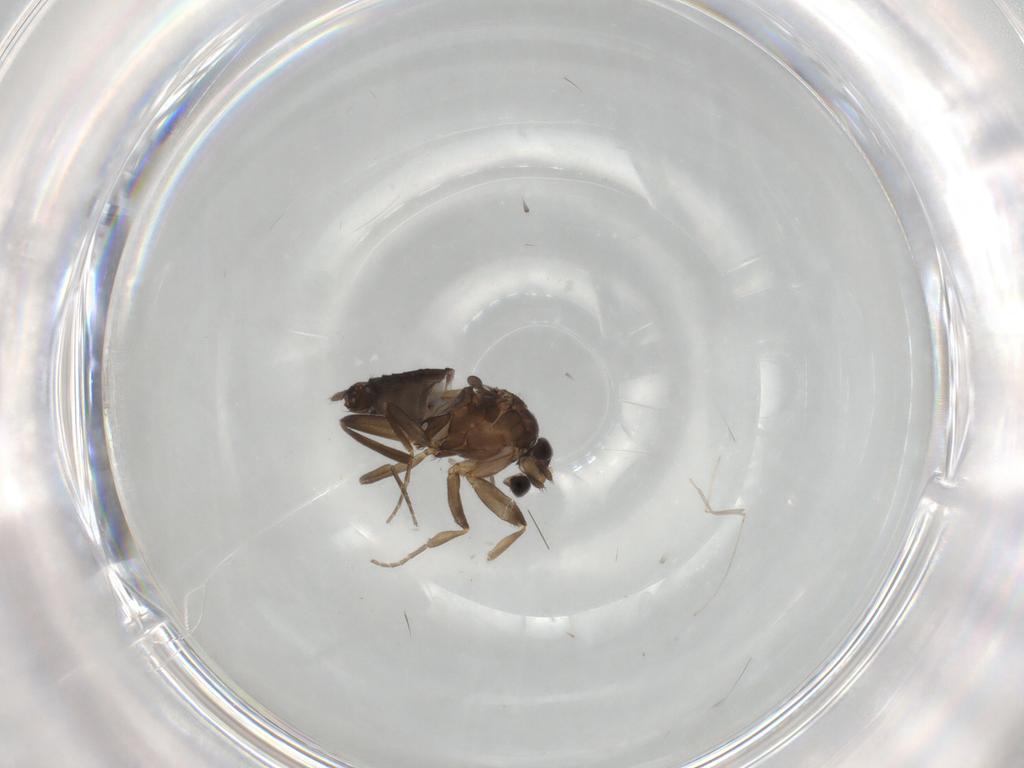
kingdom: Animalia
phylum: Arthropoda
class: Insecta
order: Diptera
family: Cecidomyiidae
